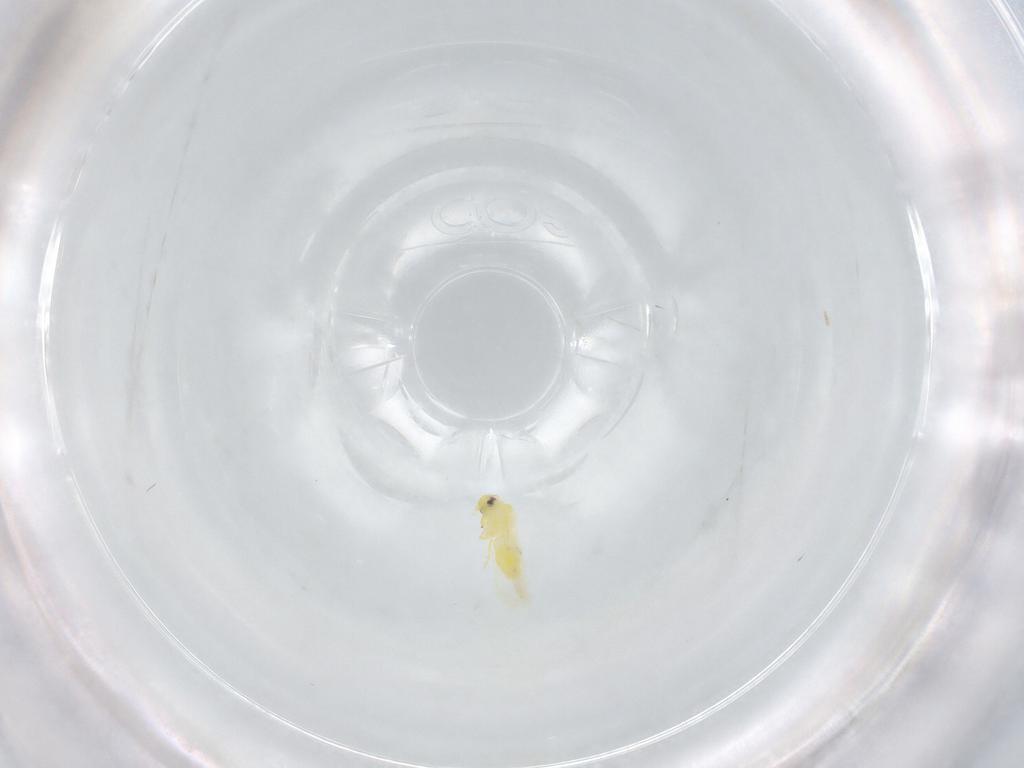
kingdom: Animalia
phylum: Arthropoda
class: Insecta
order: Hemiptera
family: Aleyrodidae
